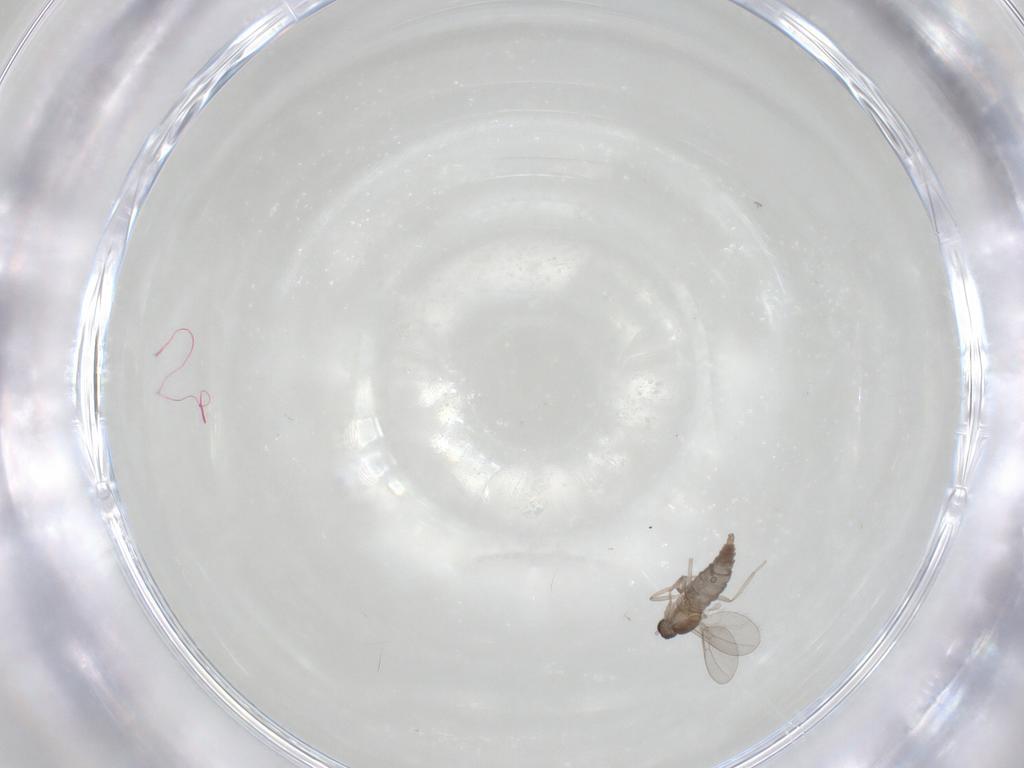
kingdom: Animalia
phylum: Arthropoda
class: Insecta
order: Diptera
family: Cecidomyiidae
